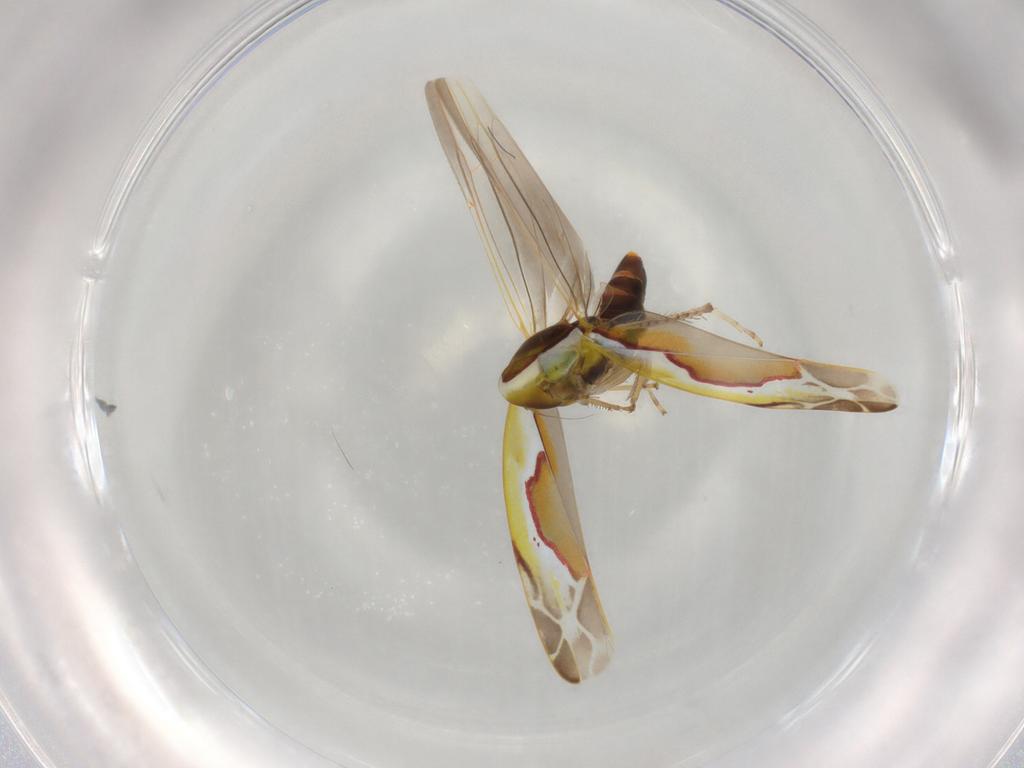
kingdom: Animalia
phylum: Arthropoda
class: Insecta
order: Hemiptera
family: Cicadellidae
